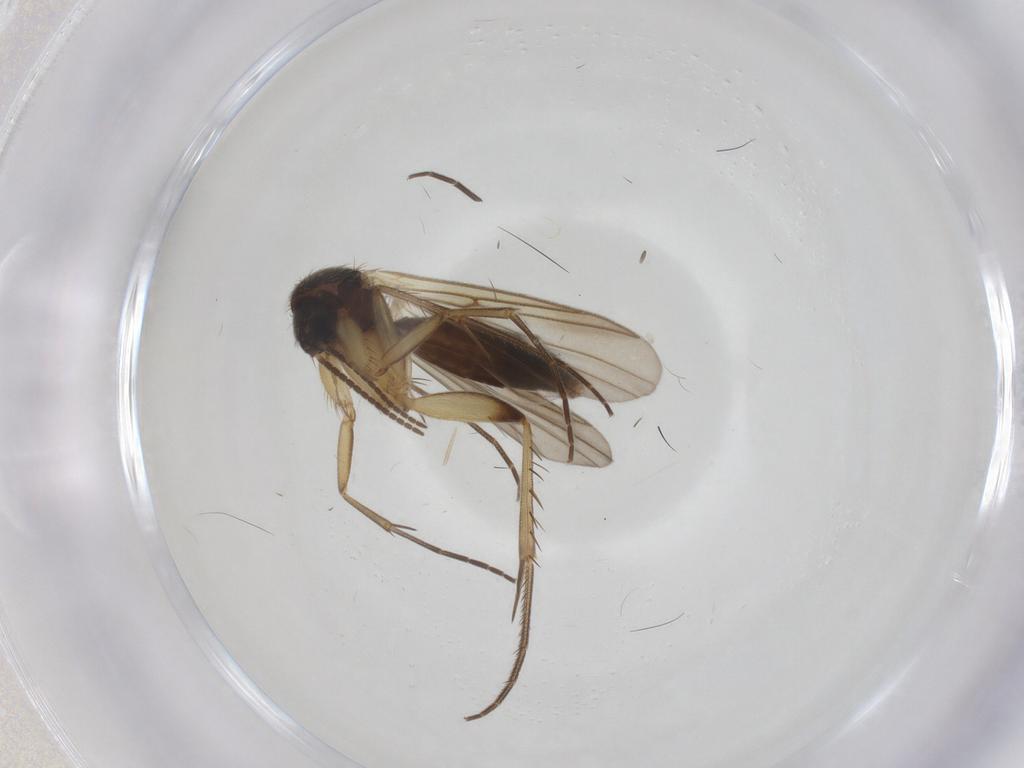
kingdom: Animalia
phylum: Arthropoda
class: Insecta
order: Diptera
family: Mycetophilidae
